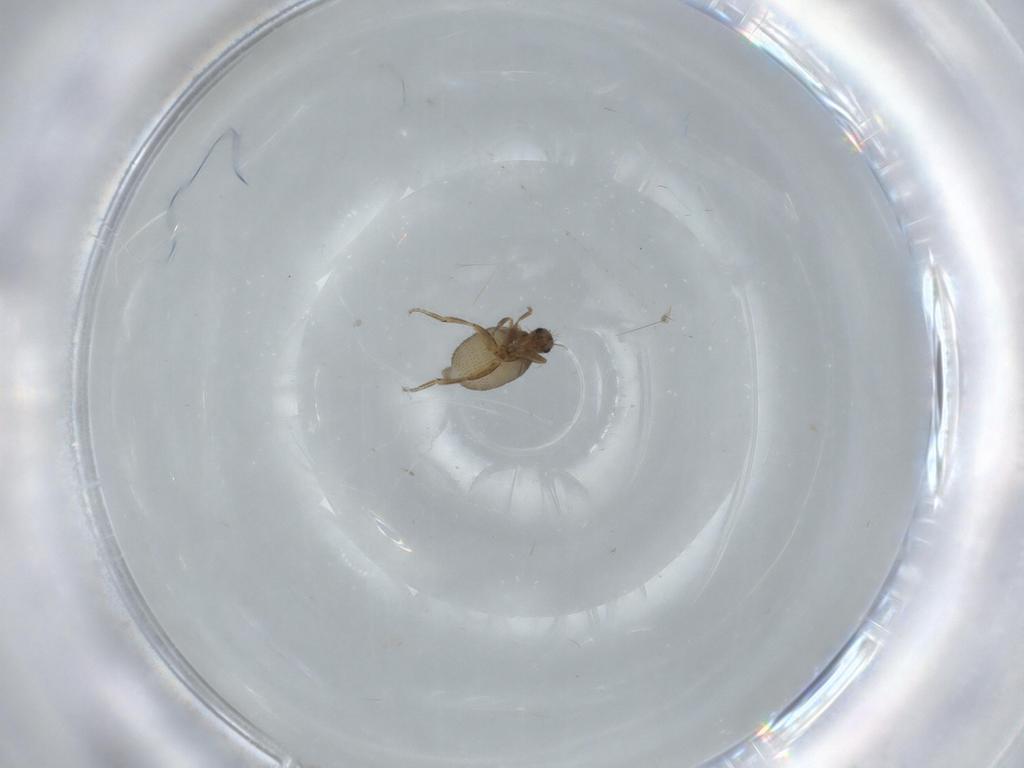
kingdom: Animalia
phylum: Arthropoda
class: Insecta
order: Diptera
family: Phoridae
